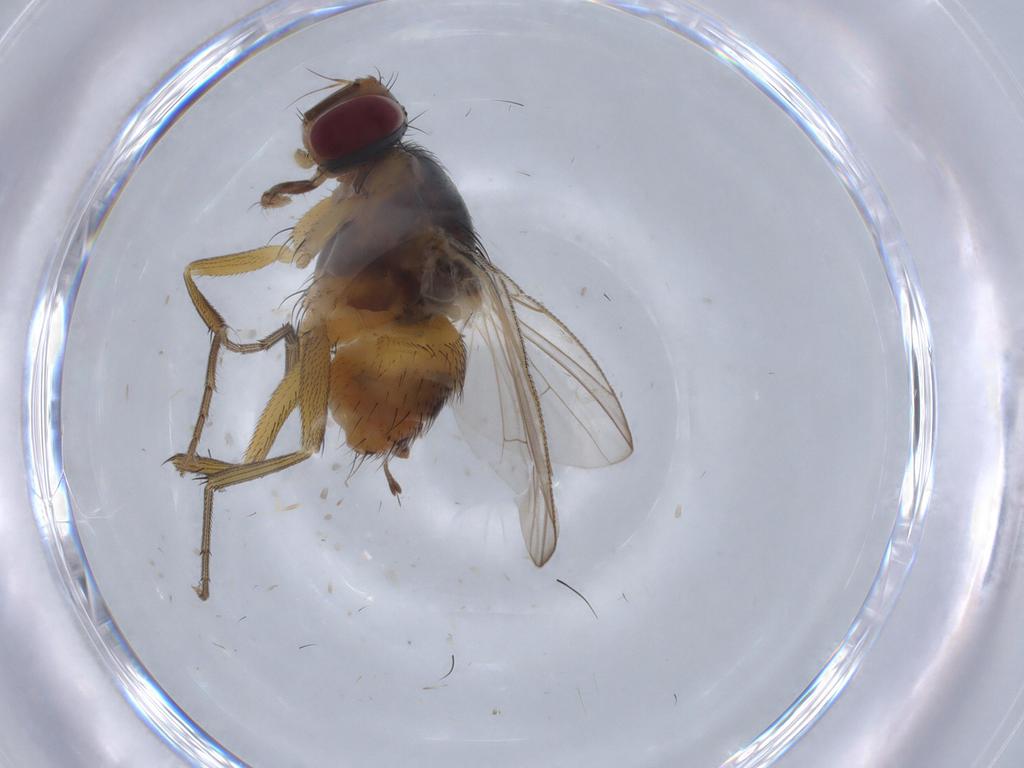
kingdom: Animalia
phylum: Arthropoda
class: Insecta
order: Diptera
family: Muscidae
